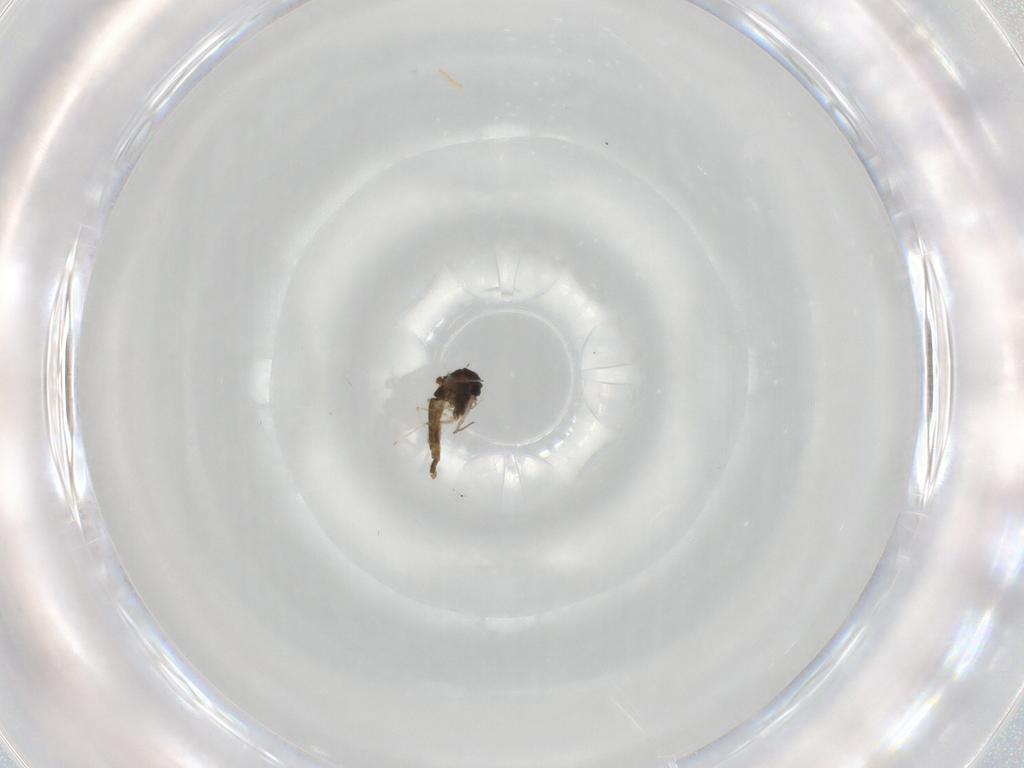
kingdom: Animalia
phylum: Arthropoda
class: Insecta
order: Diptera
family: Chironomidae
